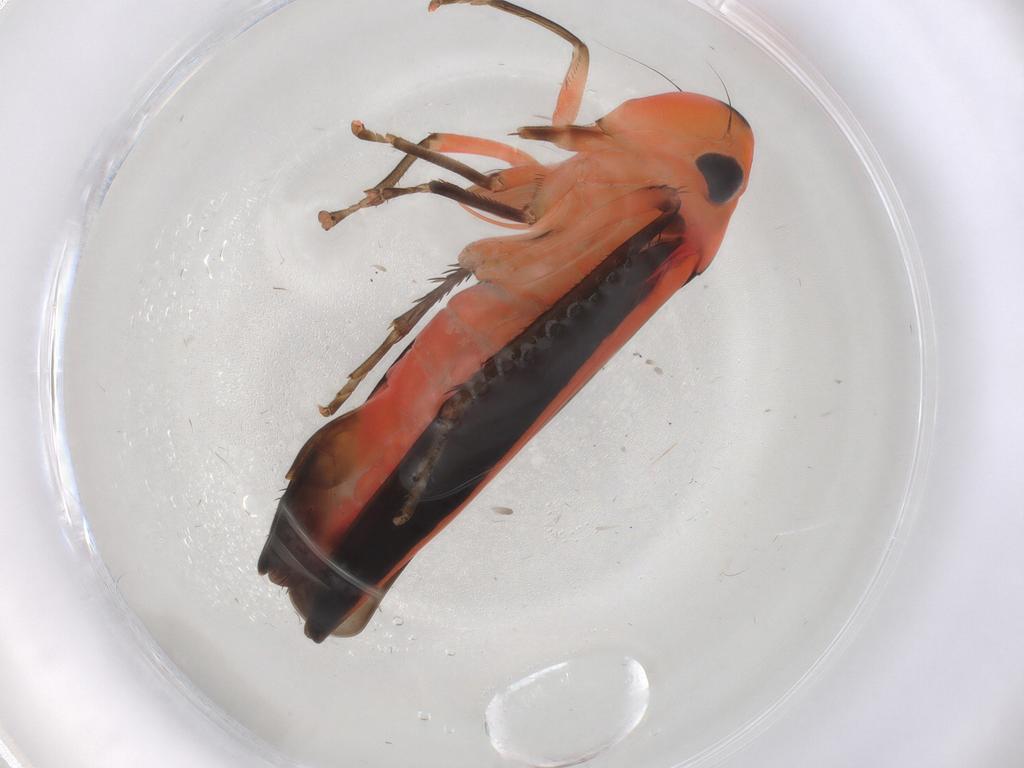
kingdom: Animalia
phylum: Arthropoda
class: Insecta
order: Hemiptera
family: Cicadellidae
